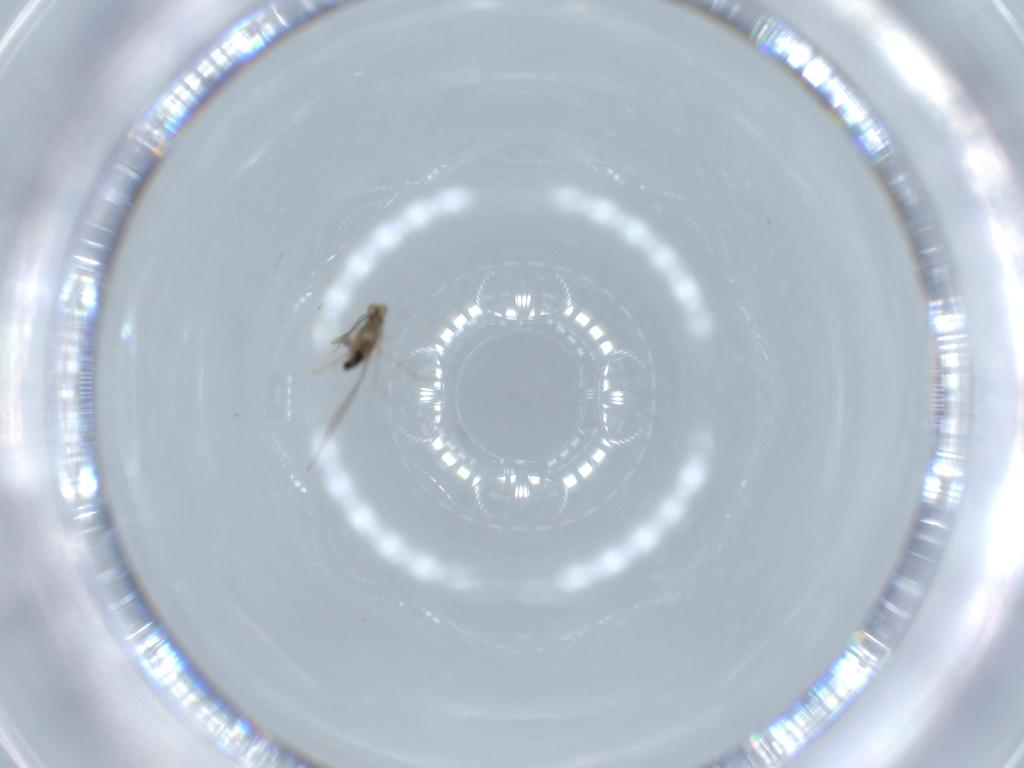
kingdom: Animalia
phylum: Arthropoda
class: Insecta
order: Diptera
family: Cecidomyiidae
